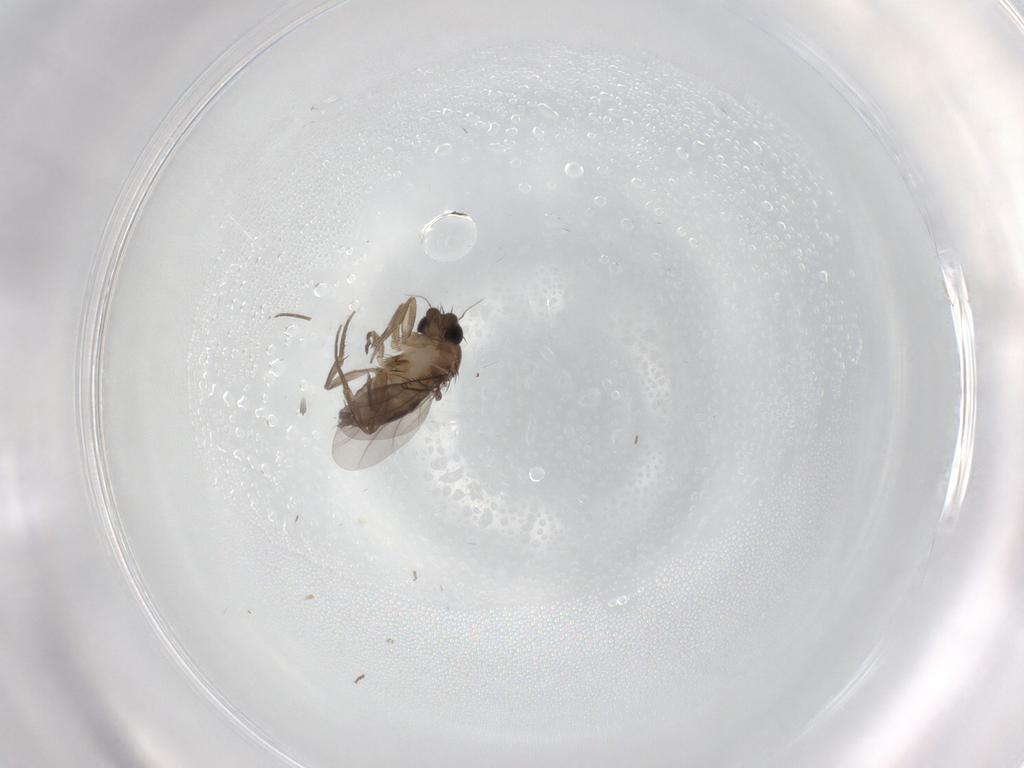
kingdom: Animalia
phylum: Arthropoda
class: Insecta
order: Diptera
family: Phoridae
